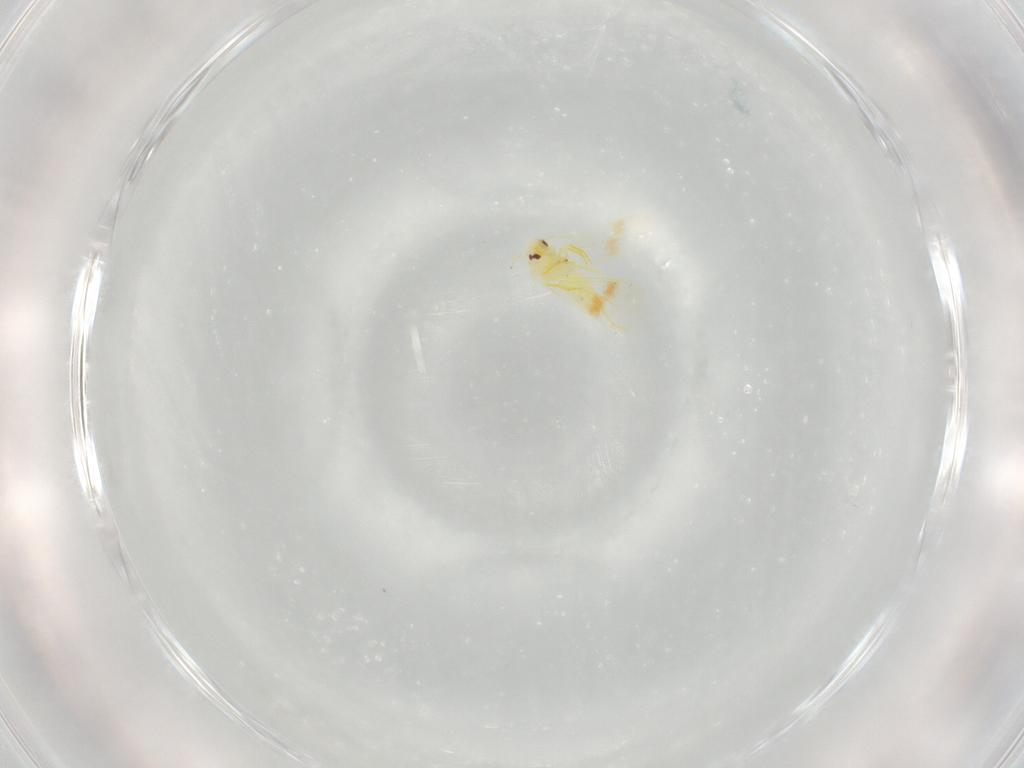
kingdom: Animalia
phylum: Arthropoda
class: Insecta
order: Hemiptera
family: Aleyrodidae
